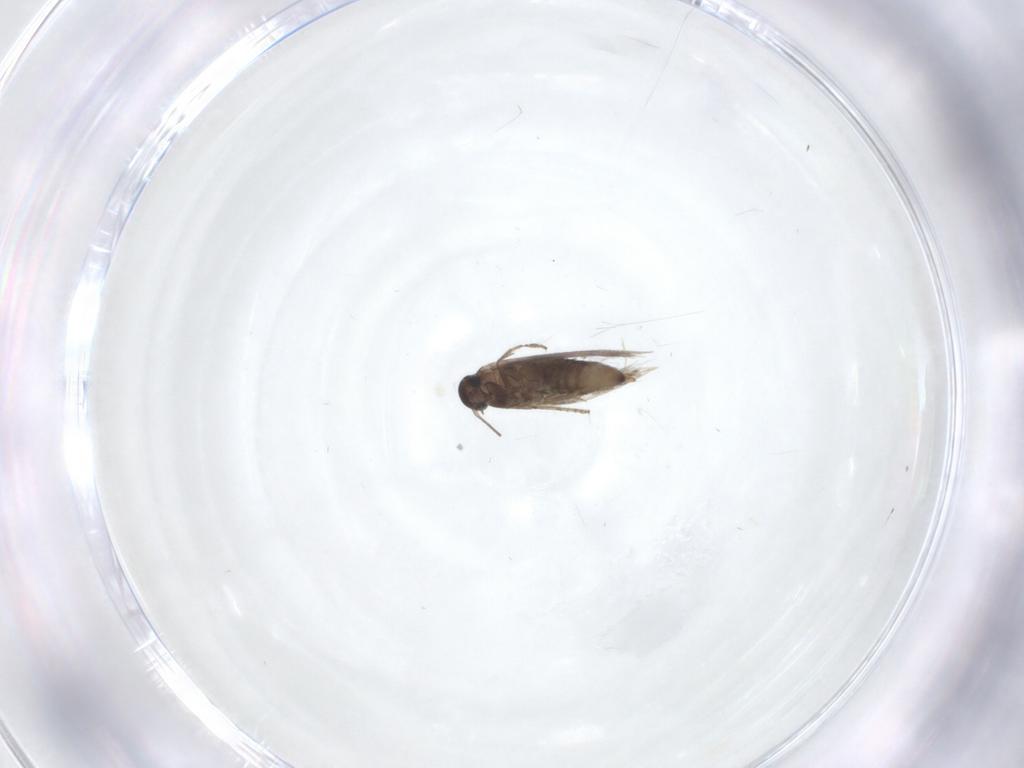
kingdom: Animalia
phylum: Arthropoda
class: Insecta
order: Lepidoptera
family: Heliozelidae
